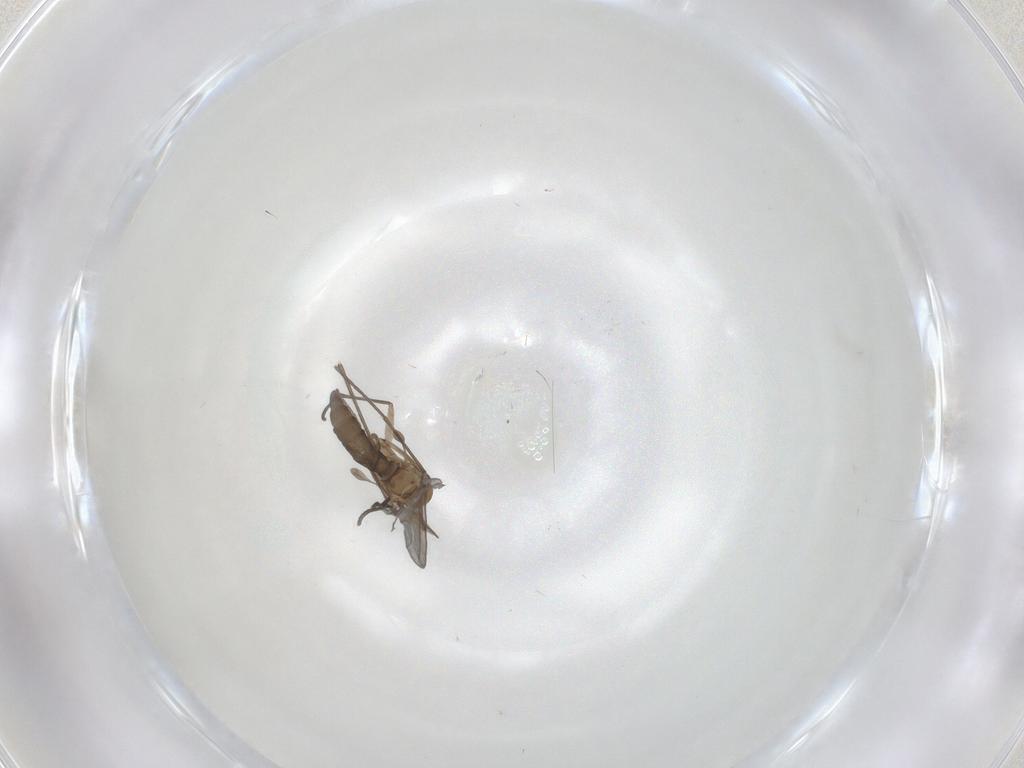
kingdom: Animalia
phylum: Arthropoda
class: Insecta
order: Diptera
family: Sciaridae
